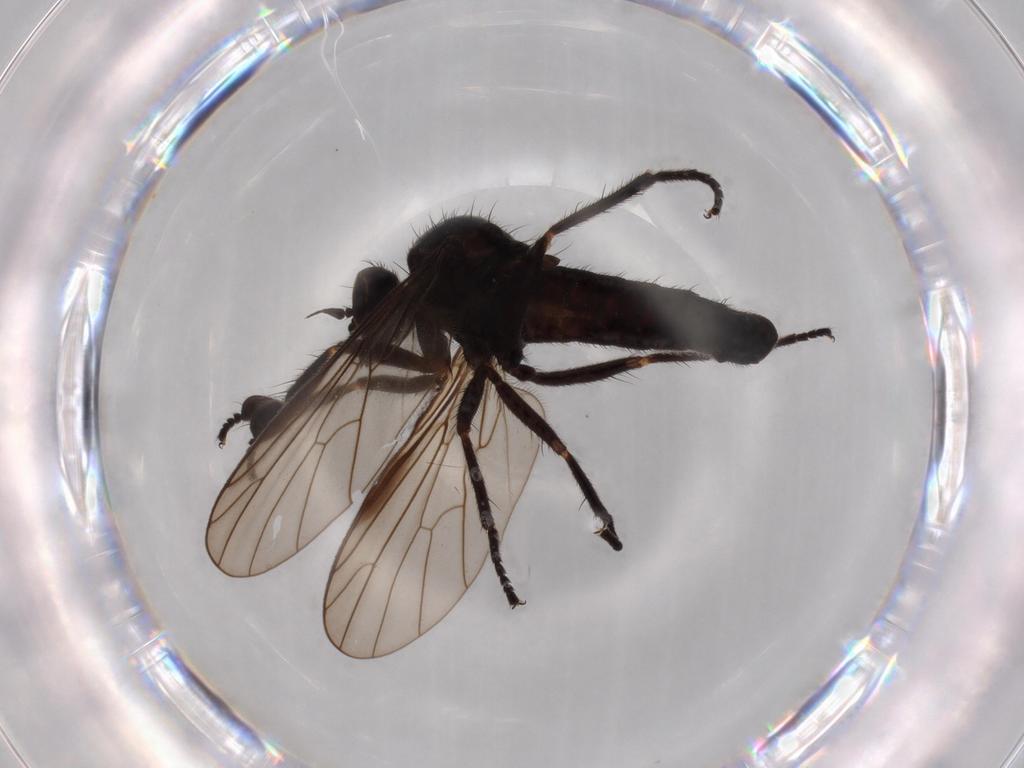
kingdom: Animalia
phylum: Arthropoda
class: Insecta
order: Diptera
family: Empididae
